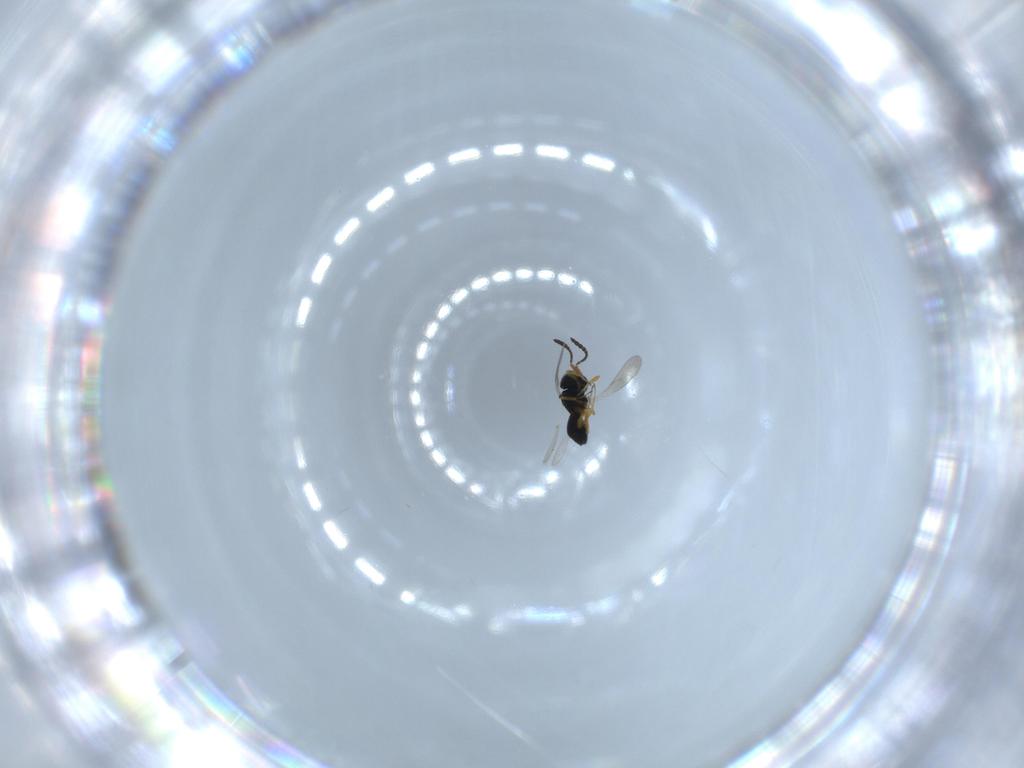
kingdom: Animalia
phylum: Arthropoda
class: Insecta
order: Hymenoptera
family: Scelionidae
